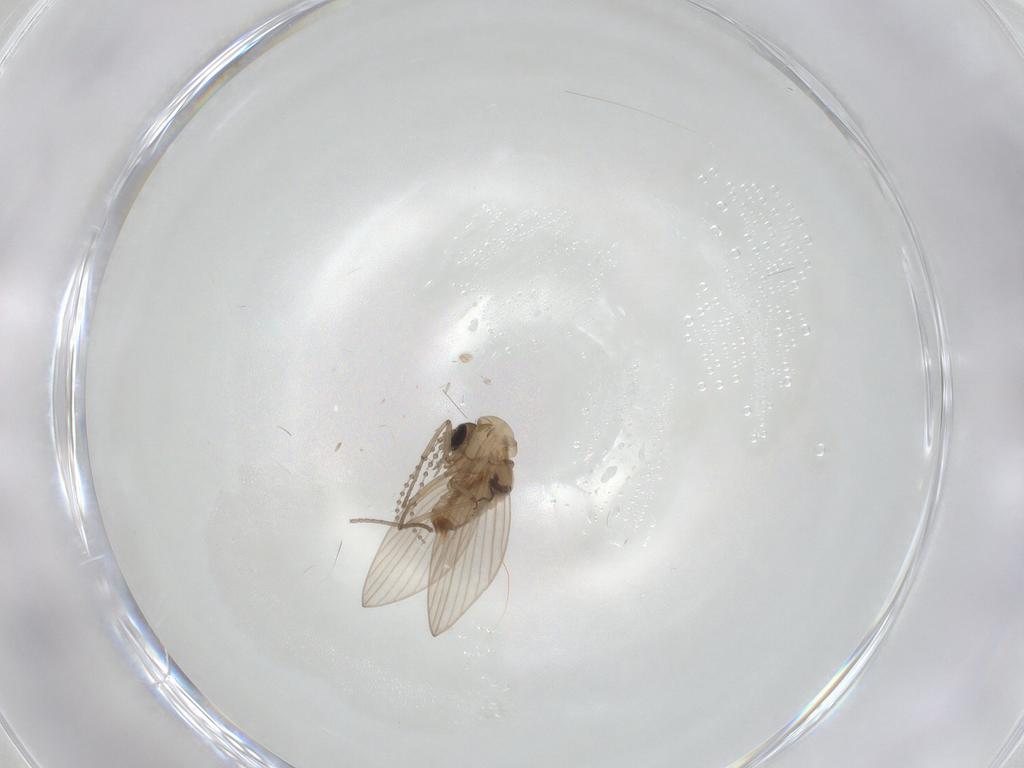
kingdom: Animalia
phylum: Arthropoda
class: Insecta
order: Diptera
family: Psychodidae
